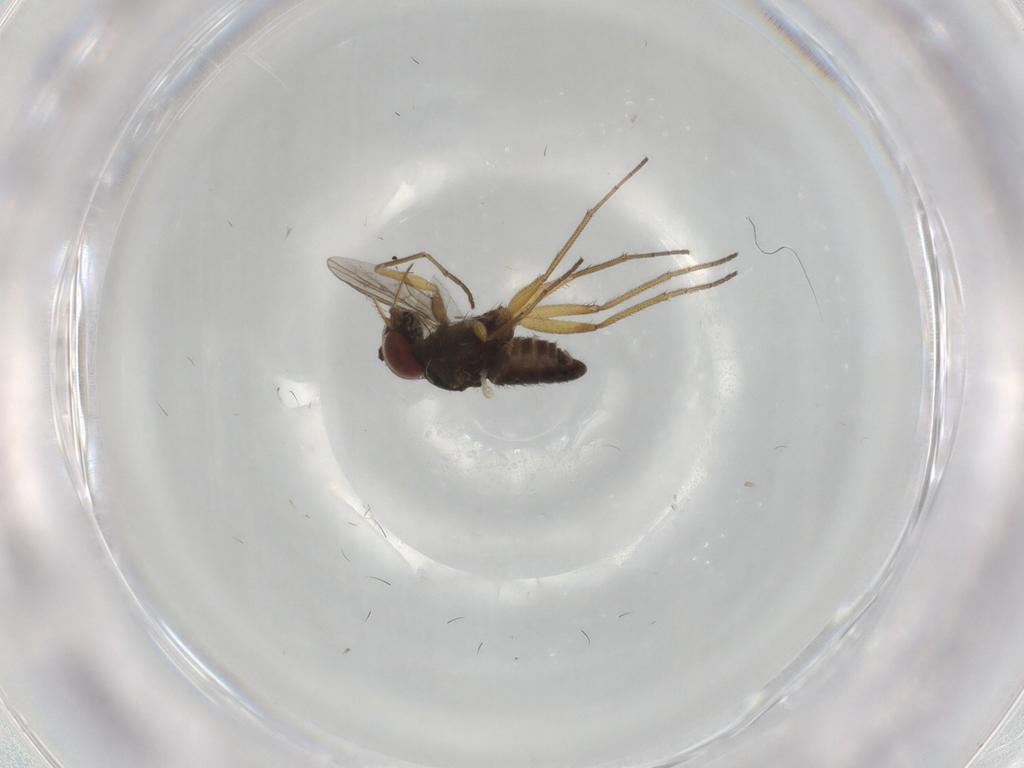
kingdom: Animalia
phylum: Arthropoda
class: Insecta
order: Diptera
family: Dolichopodidae
